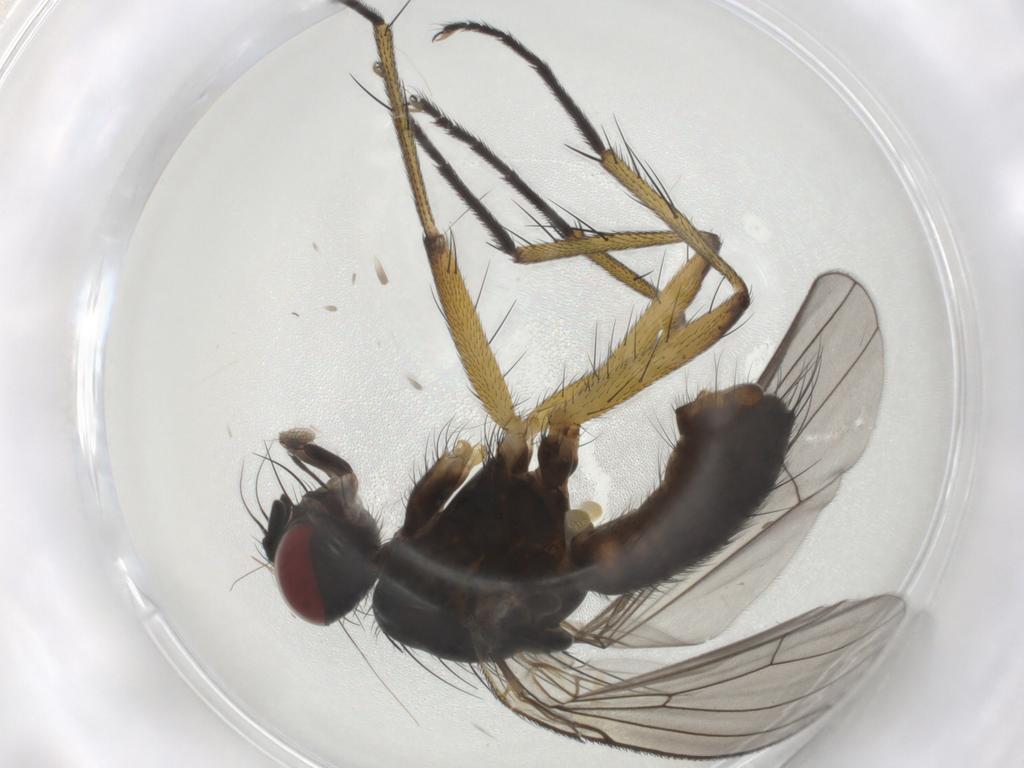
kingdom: Animalia
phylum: Arthropoda
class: Insecta
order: Diptera
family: Muscidae
